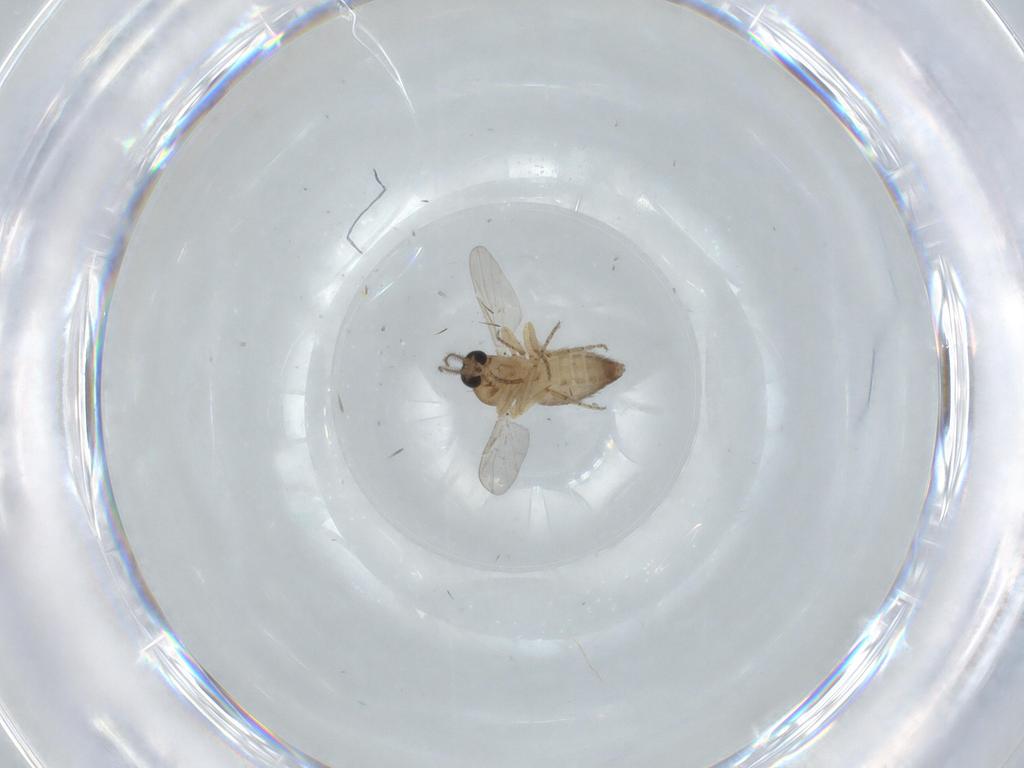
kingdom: Animalia
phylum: Arthropoda
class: Insecta
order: Diptera
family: Ceratopogonidae
